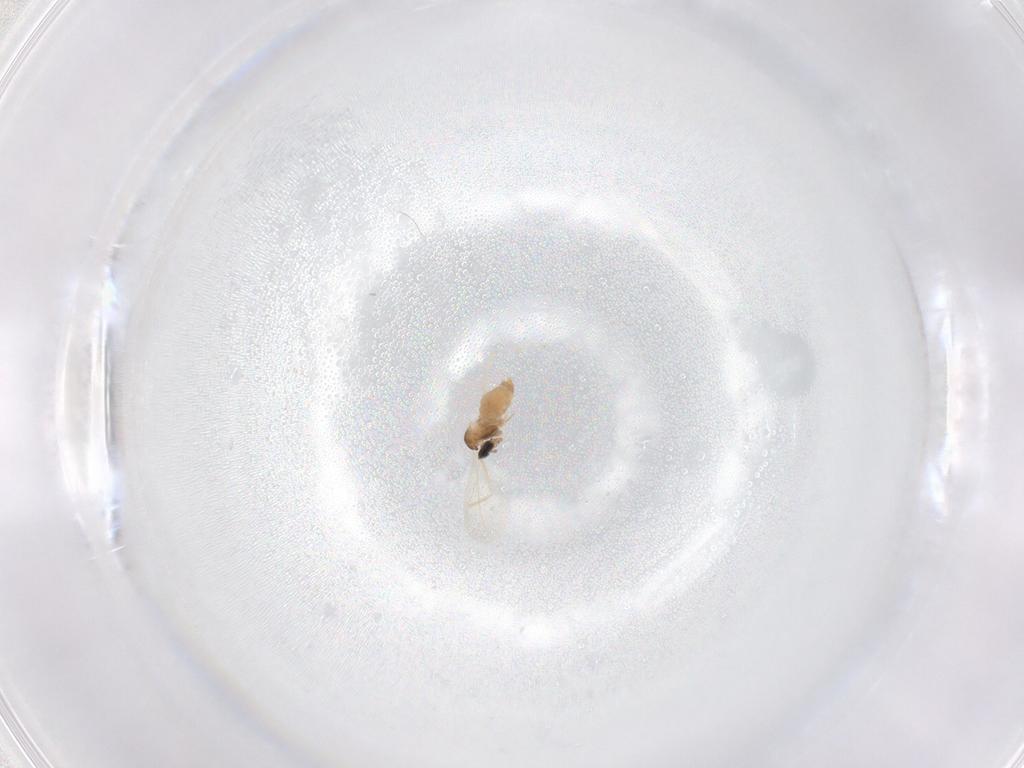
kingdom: Animalia
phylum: Arthropoda
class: Insecta
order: Diptera
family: Cecidomyiidae
